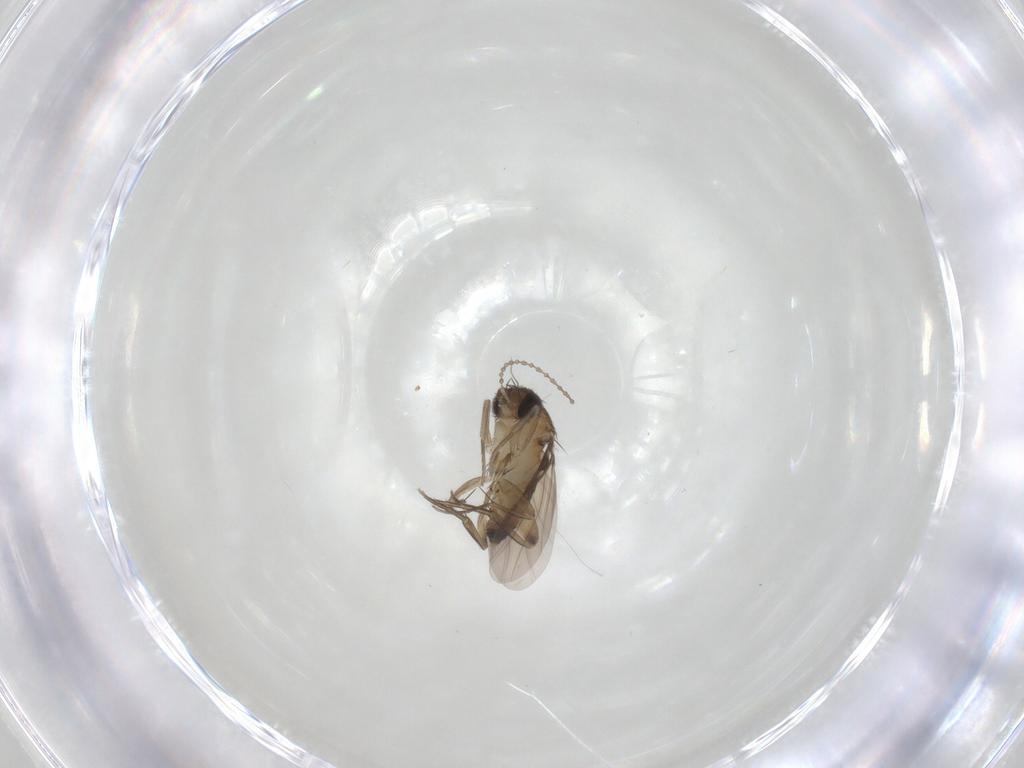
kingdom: Animalia
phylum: Arthropoda
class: Insecta
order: Diptera
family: Phoridae
